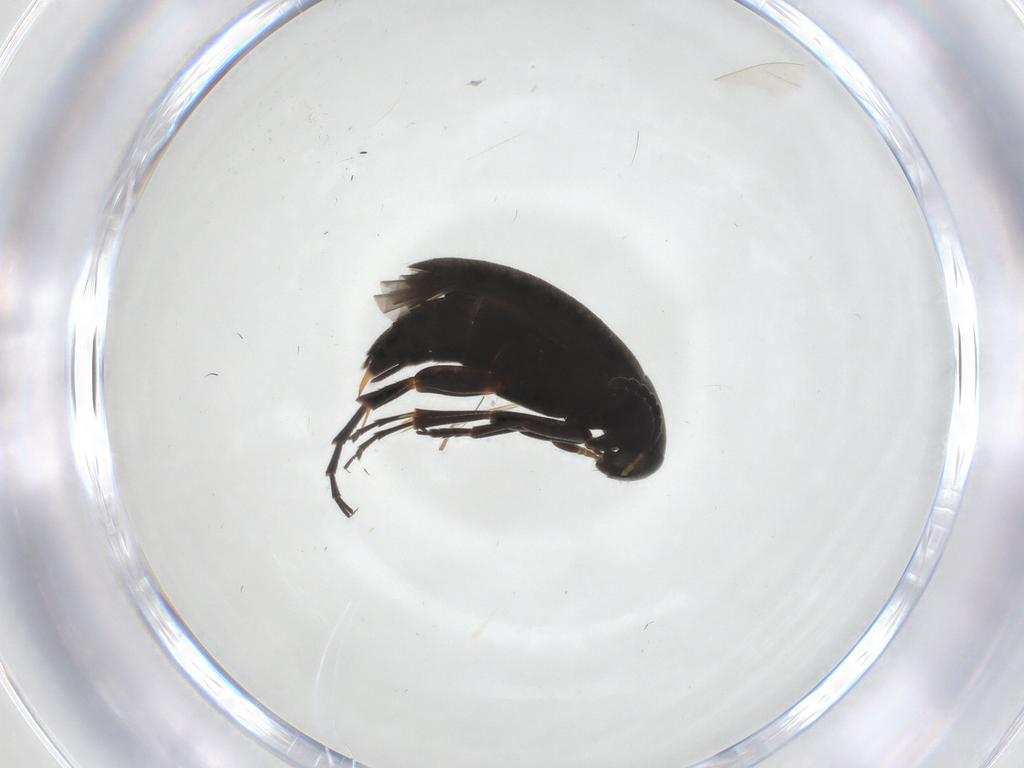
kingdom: Animalia
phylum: Arthropoda
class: Insecta
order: Coleoptera
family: Scraptiidae
